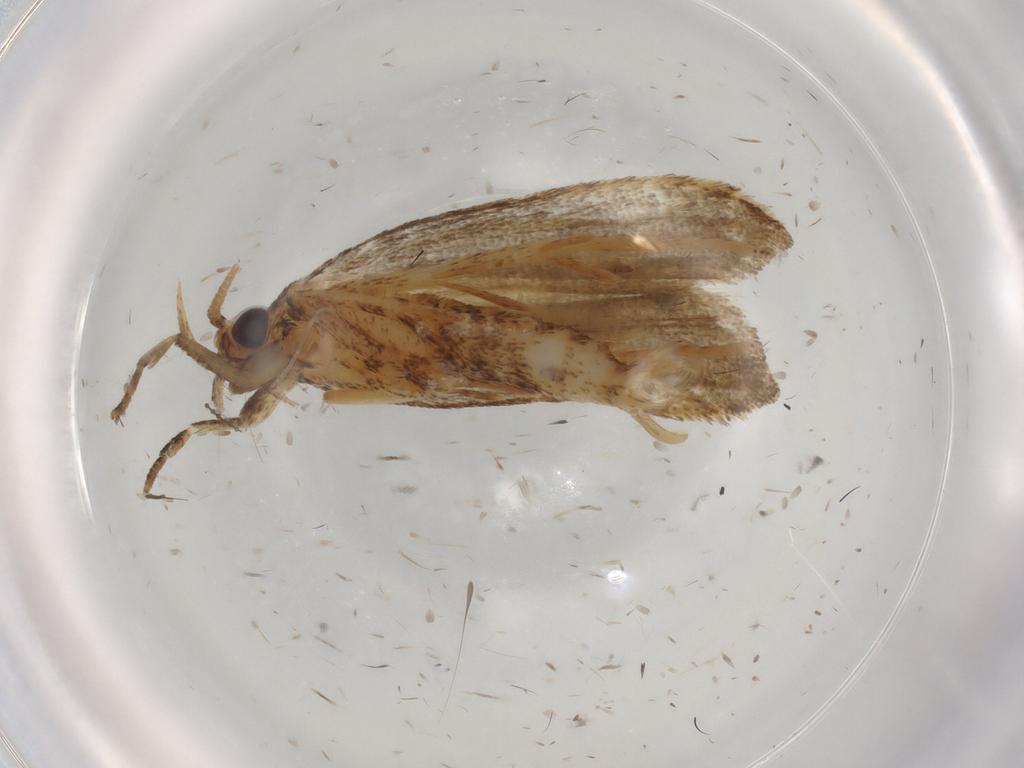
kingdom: Animalia
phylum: Arthropoda
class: Insecta
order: Lepidoptera
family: Autostichidae
